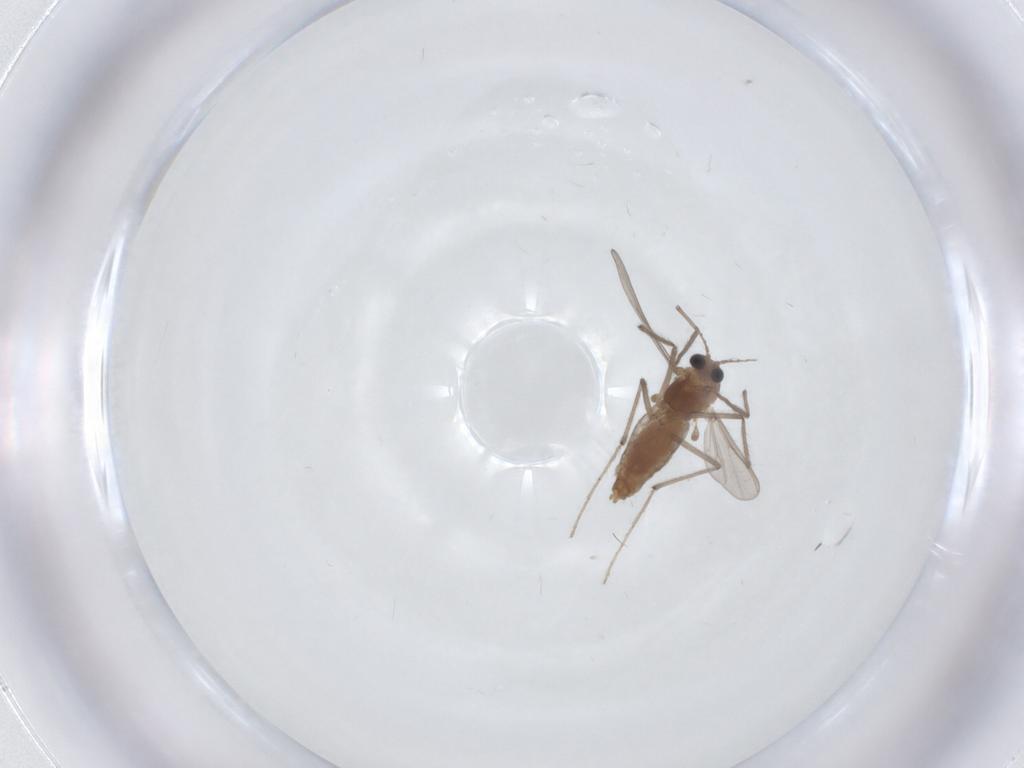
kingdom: Animalia
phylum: Arthropoda
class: Insecta
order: Diptera
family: Chironomidae
